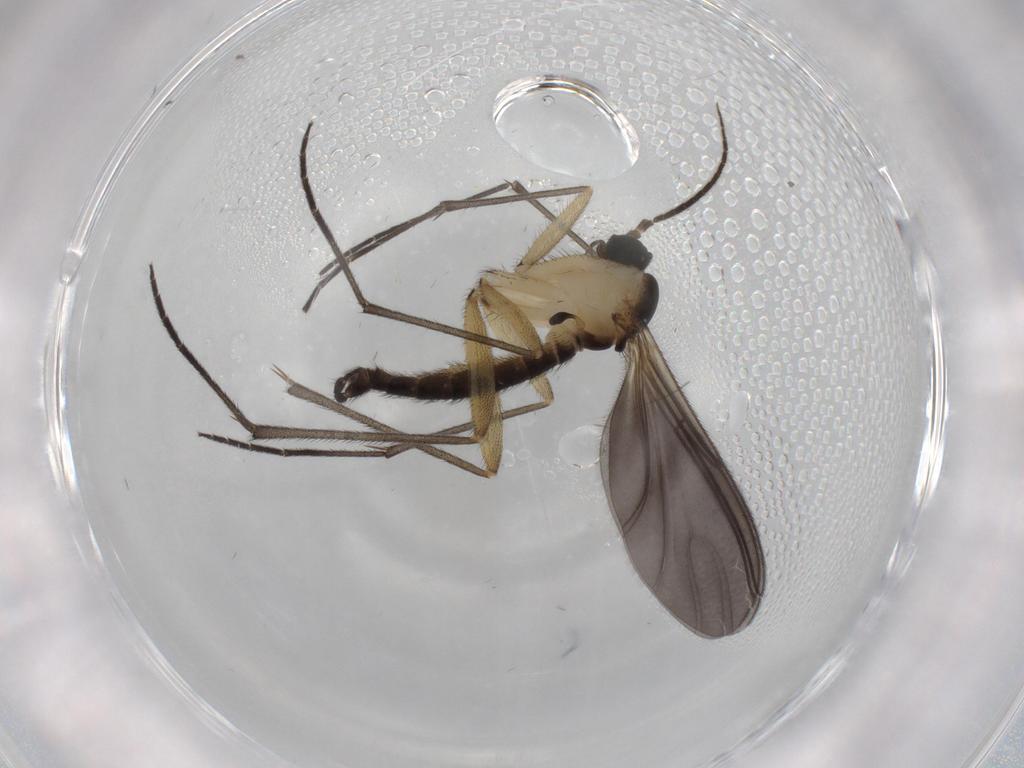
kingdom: Animalia
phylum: Arthropoda
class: Insecta
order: Diptera
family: Sciaridae
